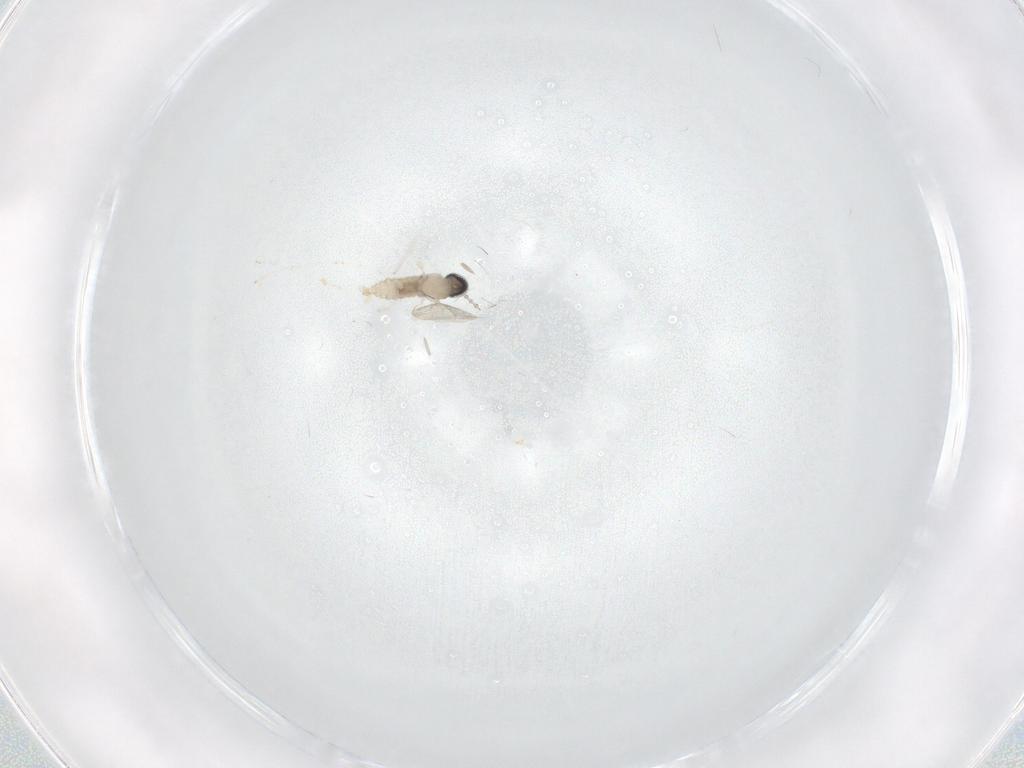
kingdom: Animalia
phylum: Arthropoda
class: Insecta
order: Diptera
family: Cecidomyiidae
